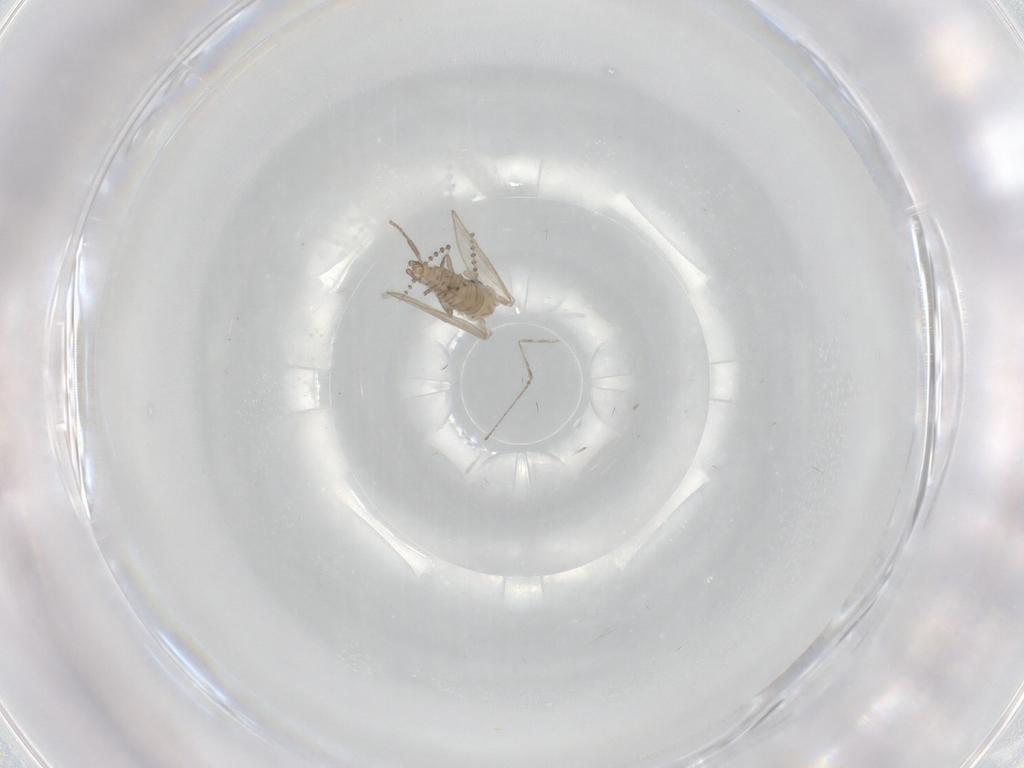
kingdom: Animalia
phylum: Arthropoda
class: Insecta
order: Diptera
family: Psychodidae
